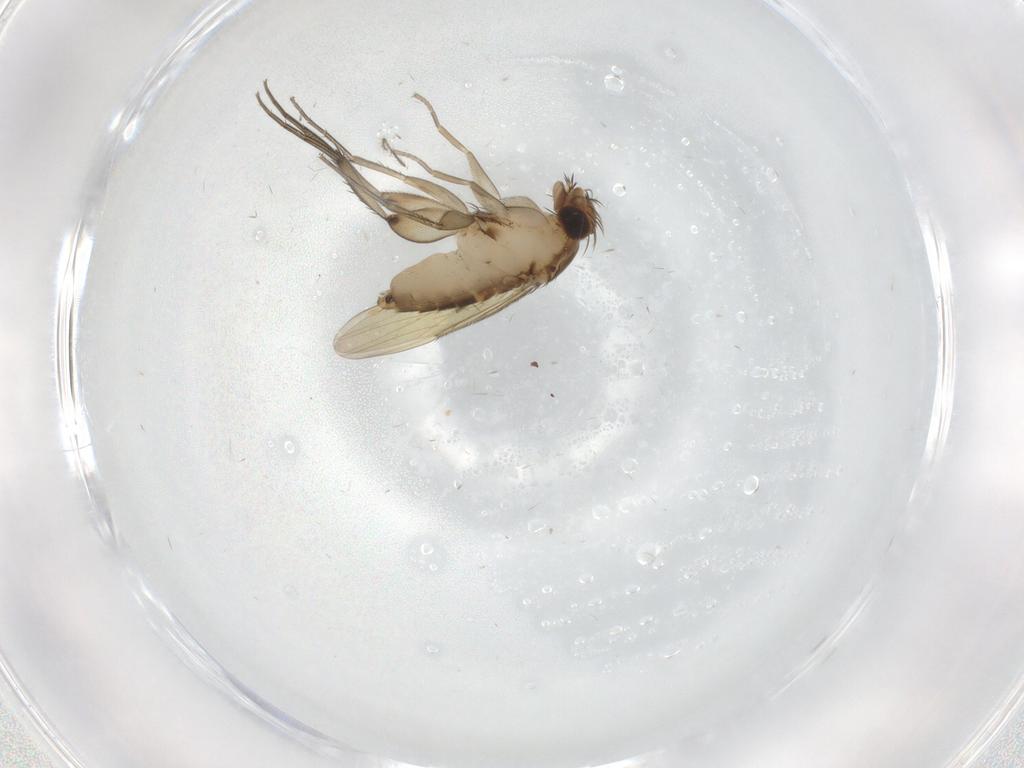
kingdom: Animalia
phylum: Arthropoda
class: Insecta
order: Diptera
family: Phoridae
